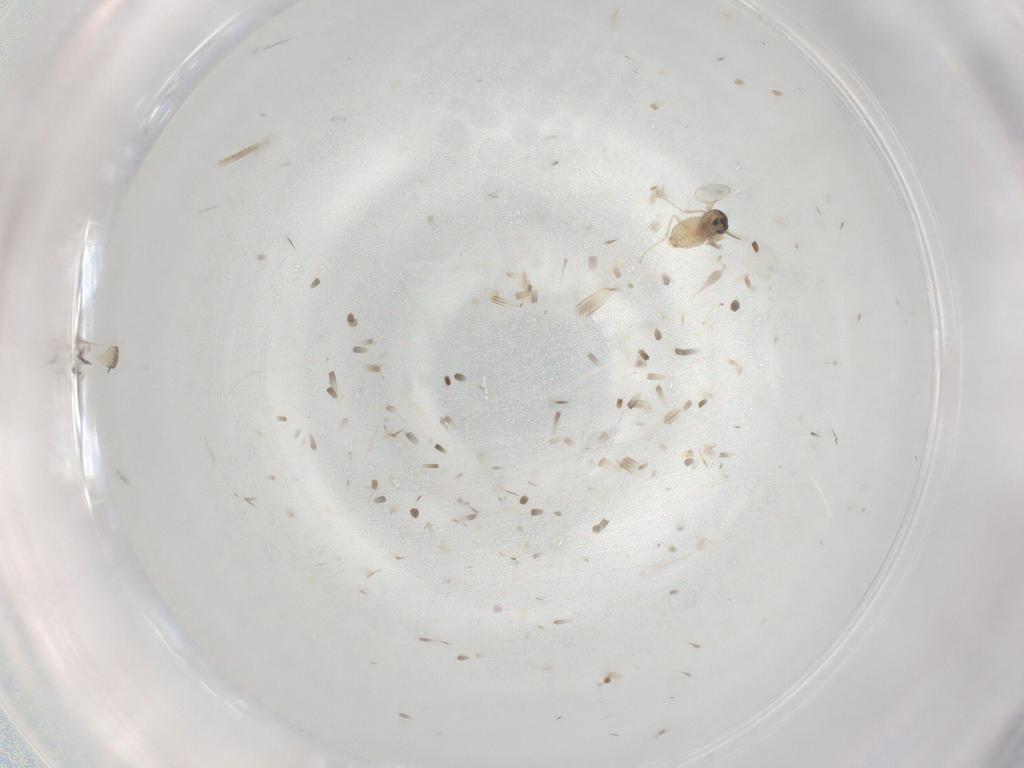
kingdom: Animalia
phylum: Arthropoda
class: Insecta
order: Diptera
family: Cecidomyiidae
